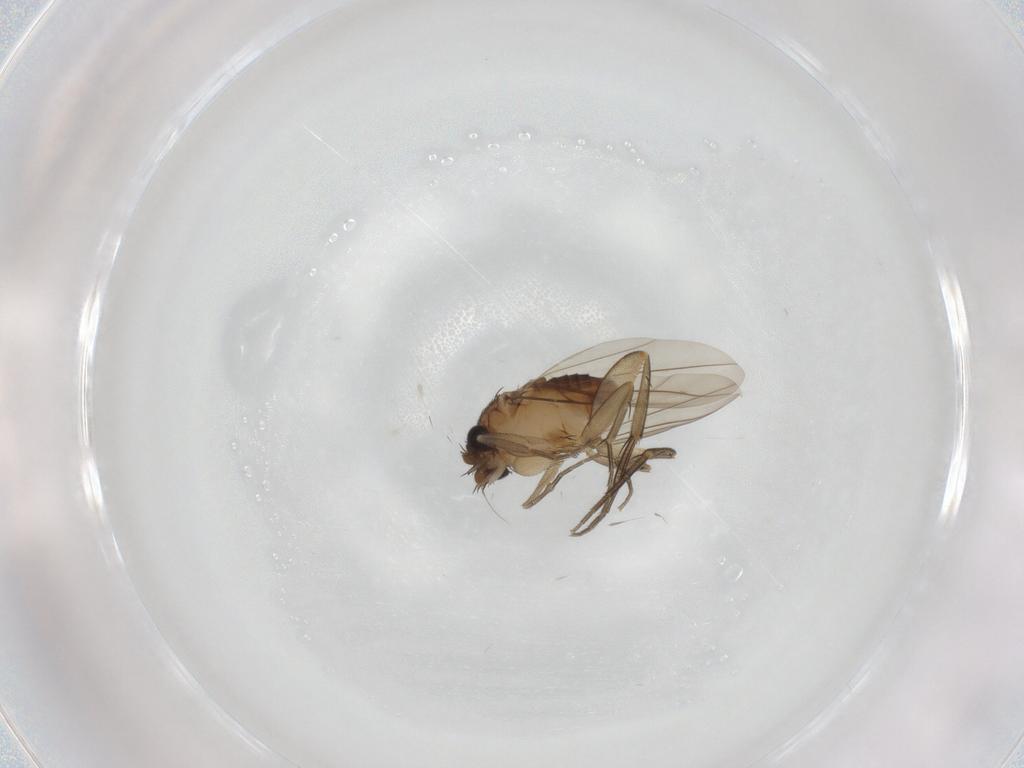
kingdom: Animalia
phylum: Arthropoda
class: Insecta
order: Diptera
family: Phoridae
